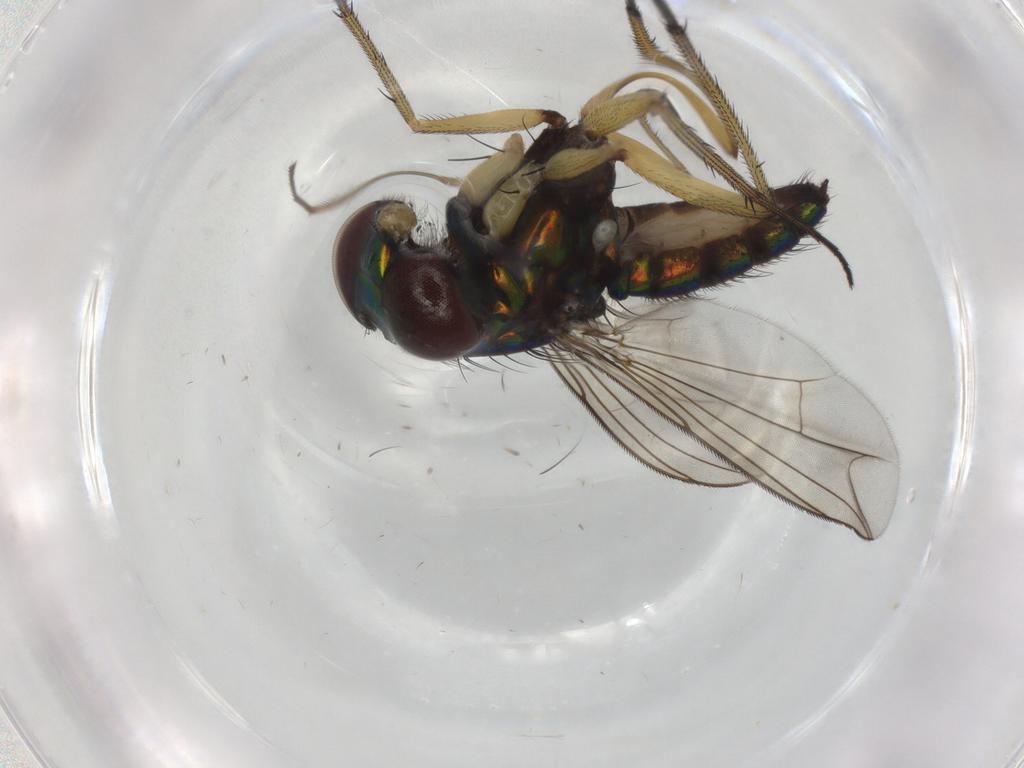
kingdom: Animalia
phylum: Arthropoda
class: Insecta
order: Diptera
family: Dolichopodidae
